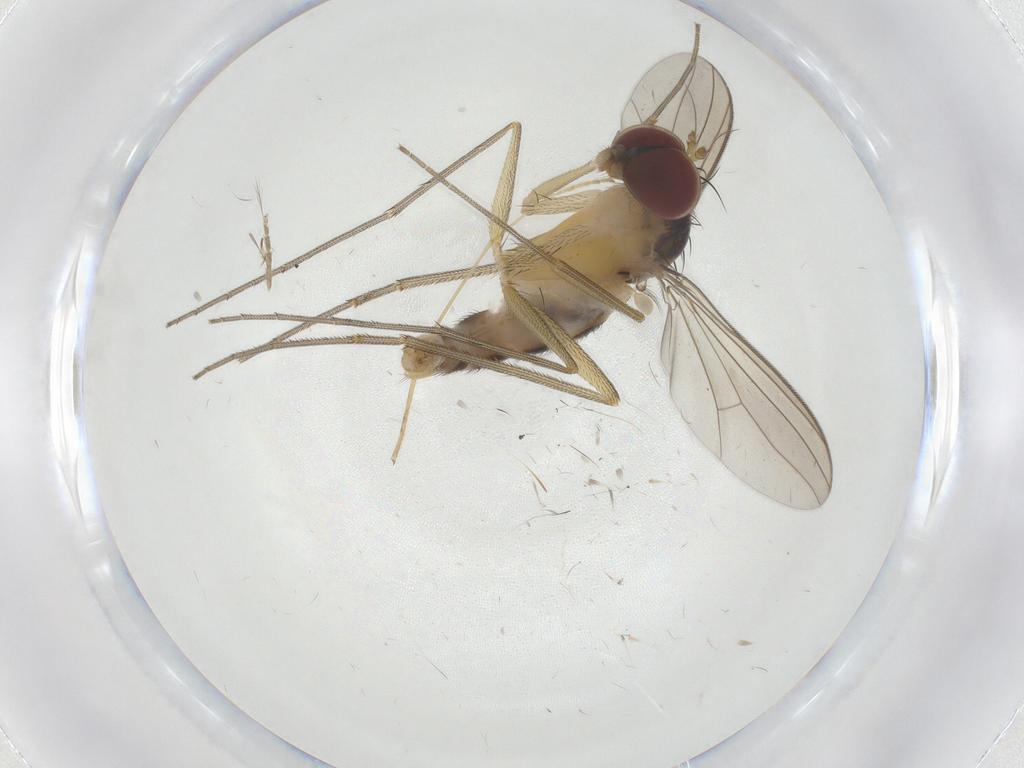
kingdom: Animalia
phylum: Arthropoda
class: Insecta
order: Diptera
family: Dolichopodidae
